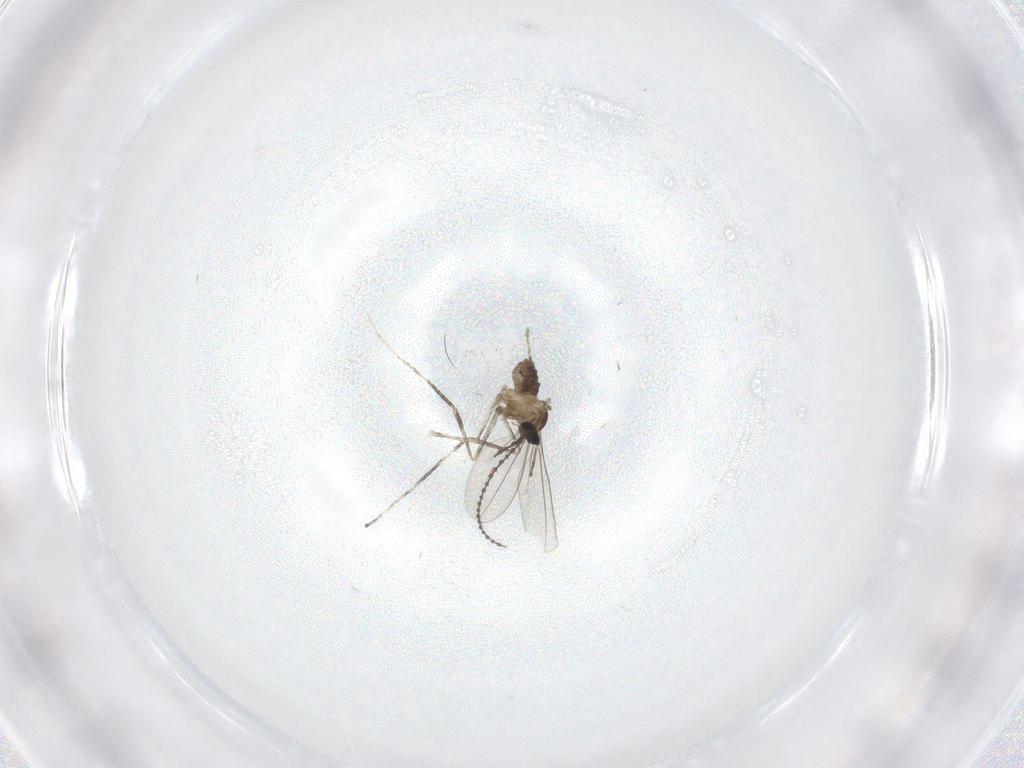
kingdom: Animalia
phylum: Arthropoda
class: Insecta
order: Diptera
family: Cecidomyiidae
